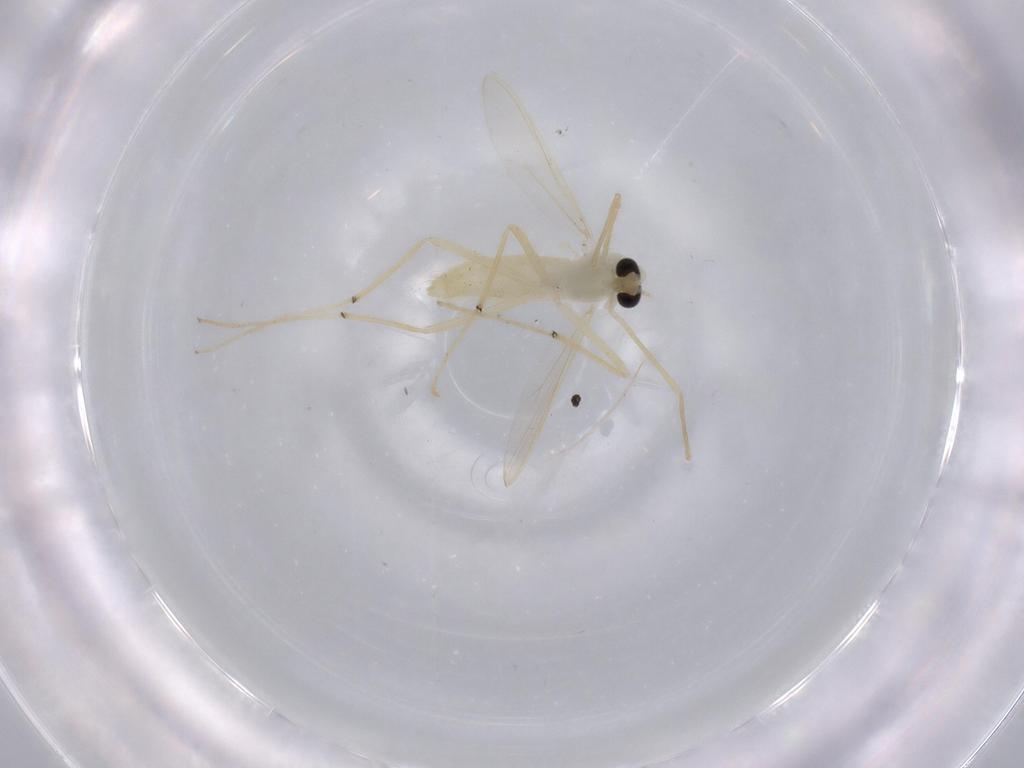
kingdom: Animalia
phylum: Arthropoda
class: Insecta
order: Diptera
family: Chironomidae
